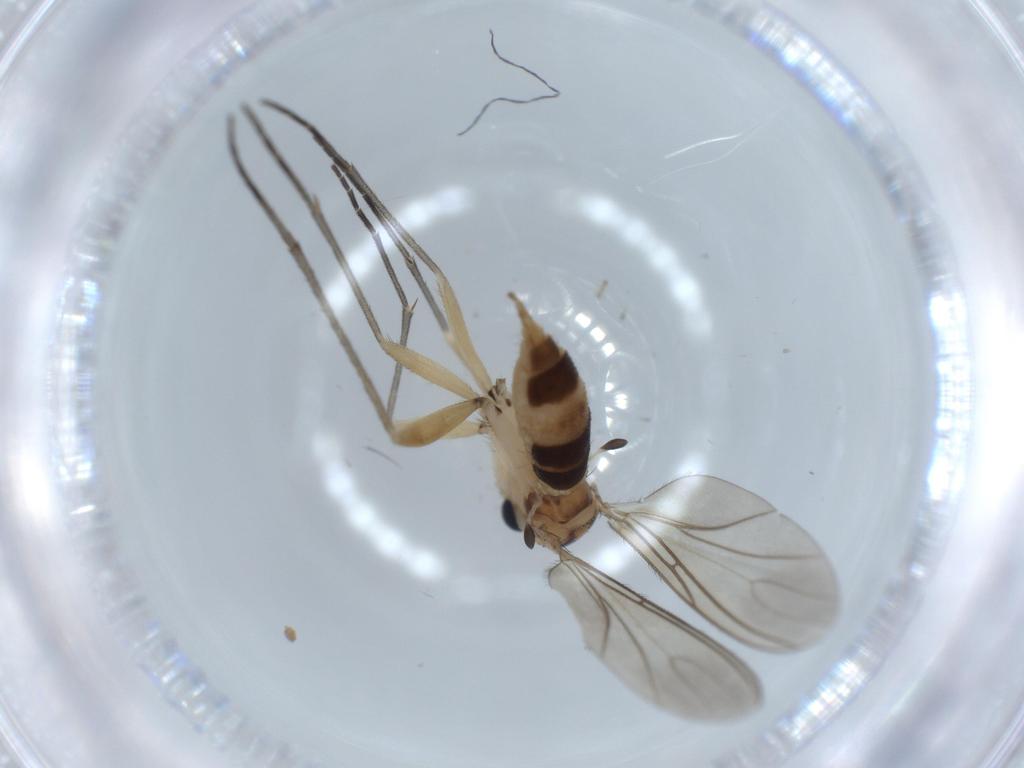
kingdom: Animalia
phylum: Arthropoda
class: Insecta
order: Diptera
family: Sciaridae
